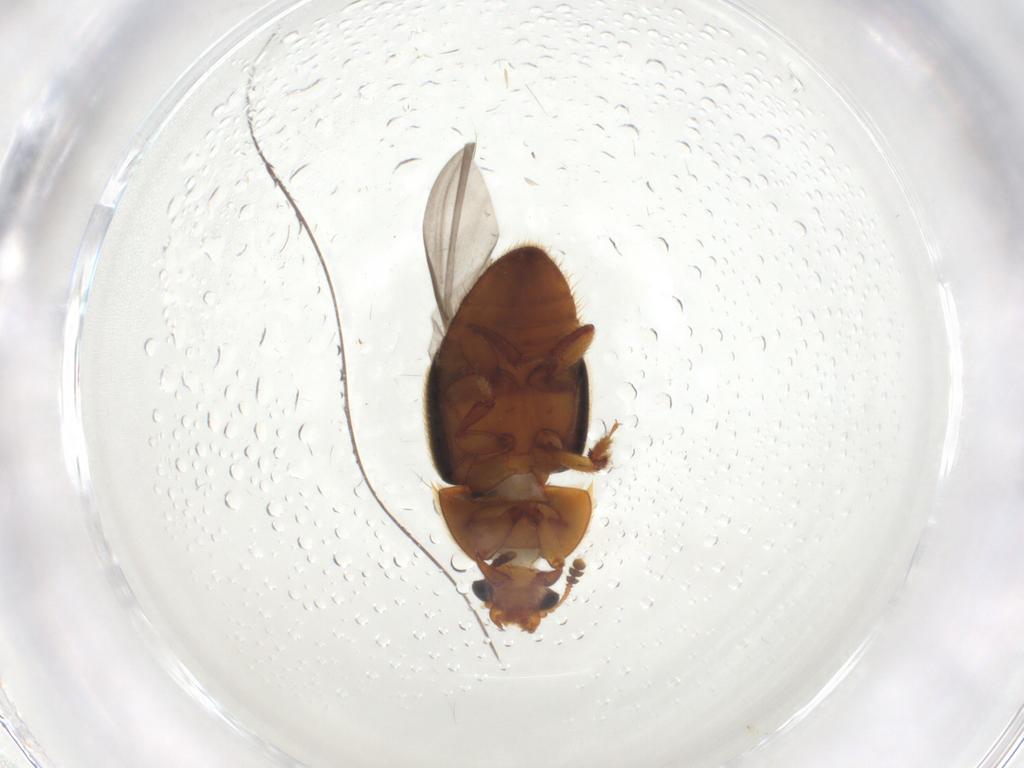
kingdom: Animalia
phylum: Arthropoda
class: Insecta
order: Coleoptera
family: Nitidulidae
